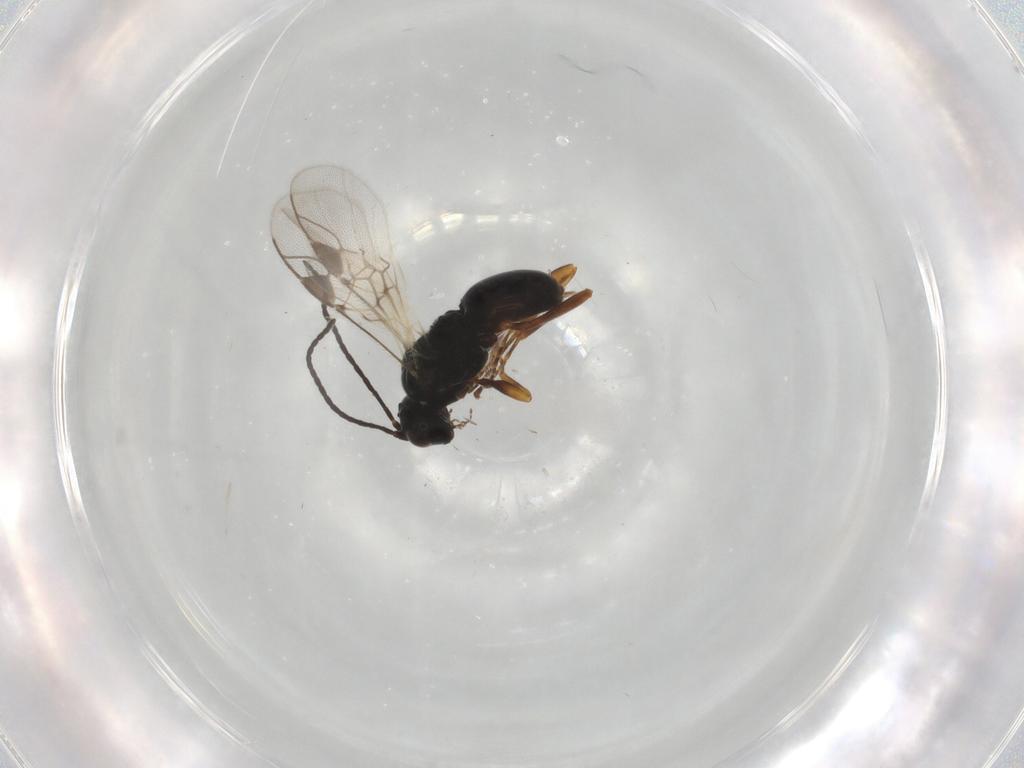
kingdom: Animalia
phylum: Arthropoda
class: Insecta
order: Hymenoptera
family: Braconidae
